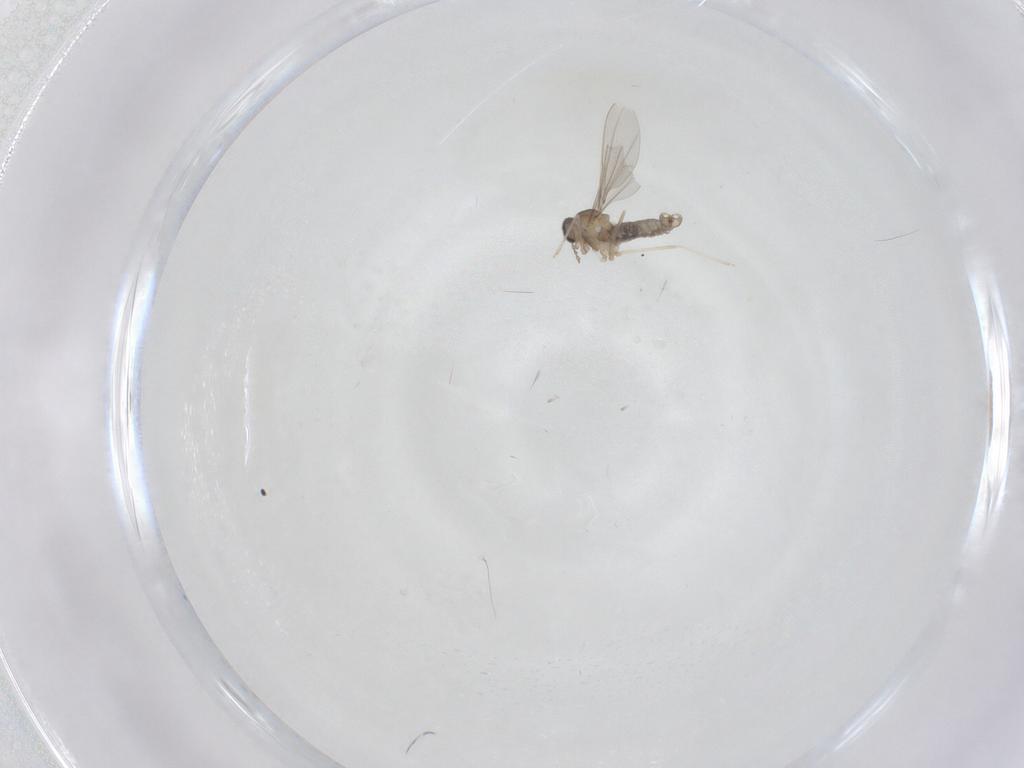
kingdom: Animalia
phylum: Arthropoda
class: Insecta
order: Diptera
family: Cecidomyiidae
